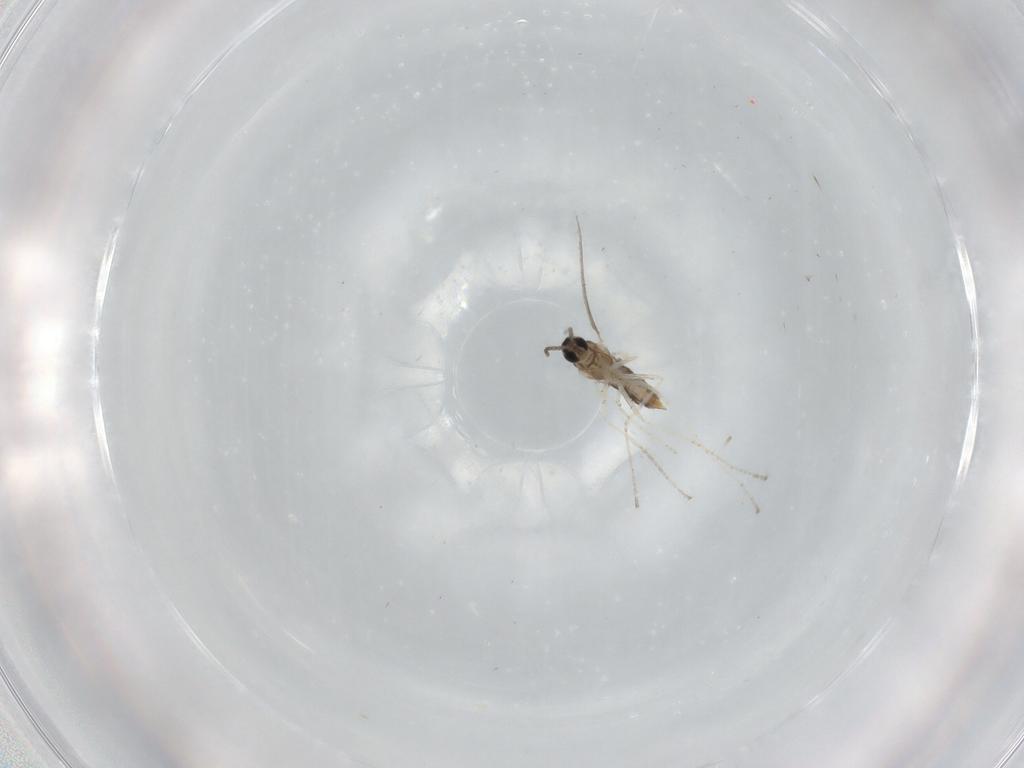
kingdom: Animalia
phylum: Arthropoda
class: Insecta
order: Diptera
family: Cecidomyiidae
